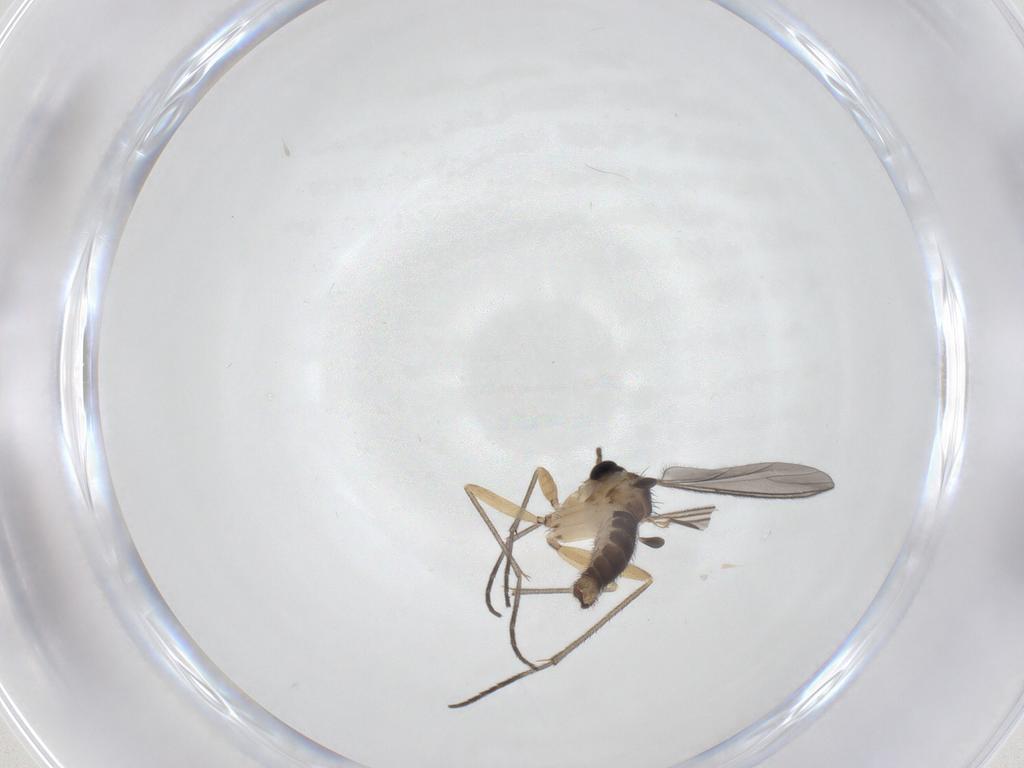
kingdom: Animalia
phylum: Arthropoda
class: Insecta
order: Diptera
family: Sciaridae
